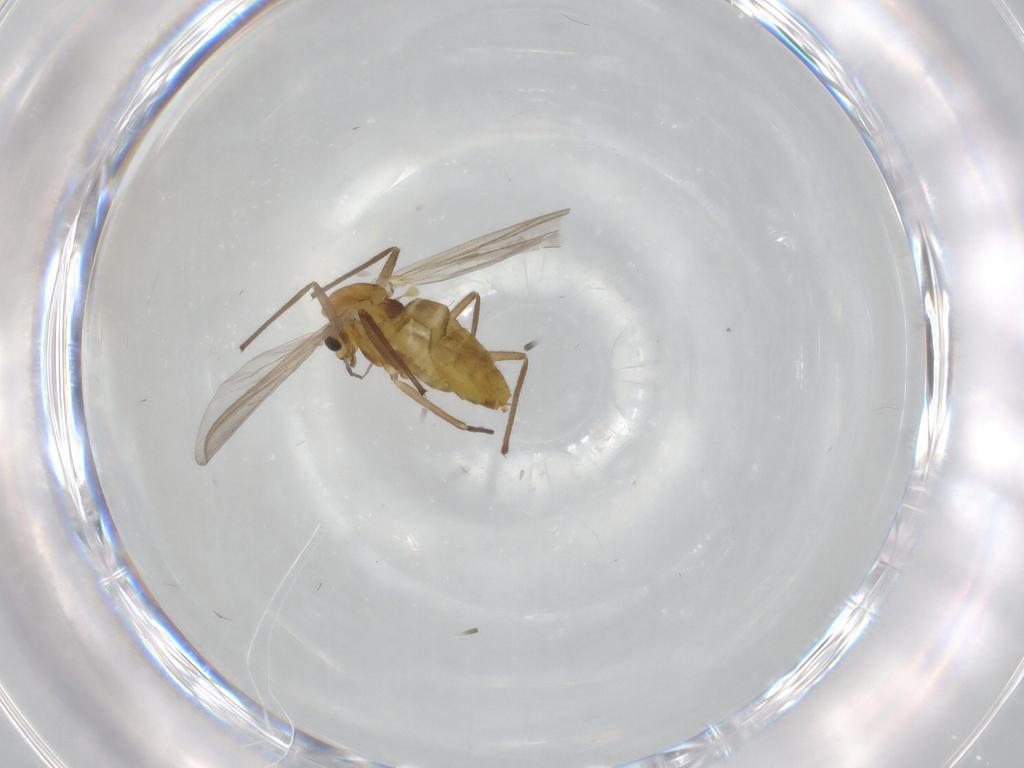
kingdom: Animalia
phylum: Arthropoda
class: Insecta
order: Diptera
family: Chironomidae
